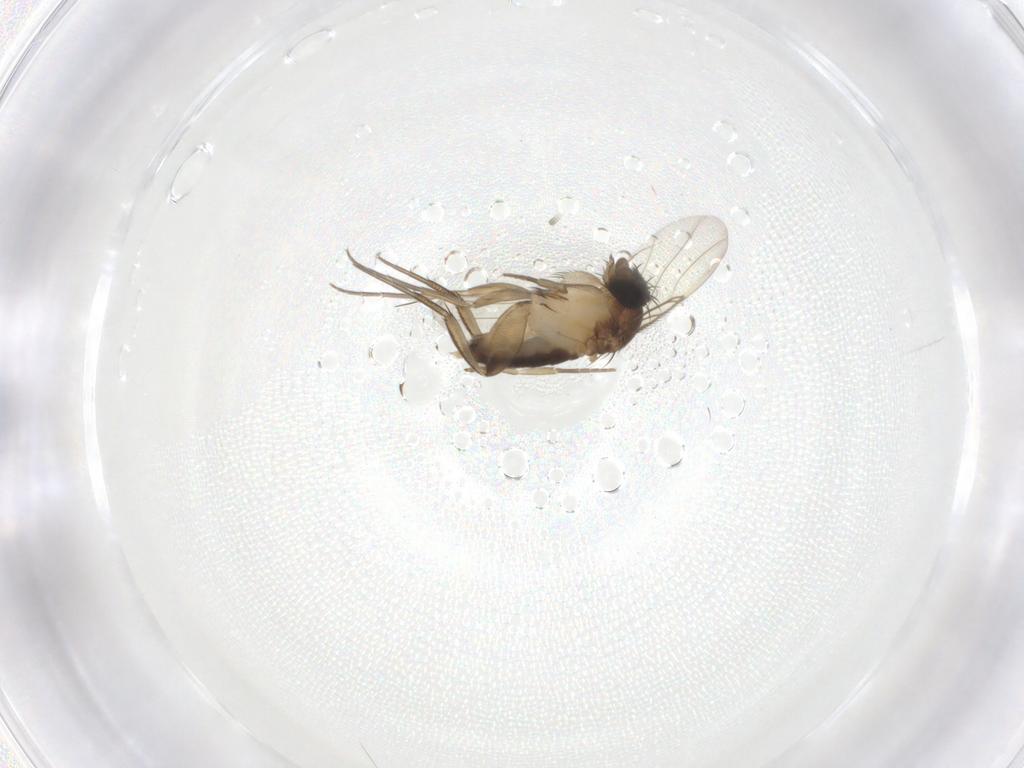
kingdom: Animalia
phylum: Arthropoda
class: Insecta
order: Diptera
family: Phoridae
